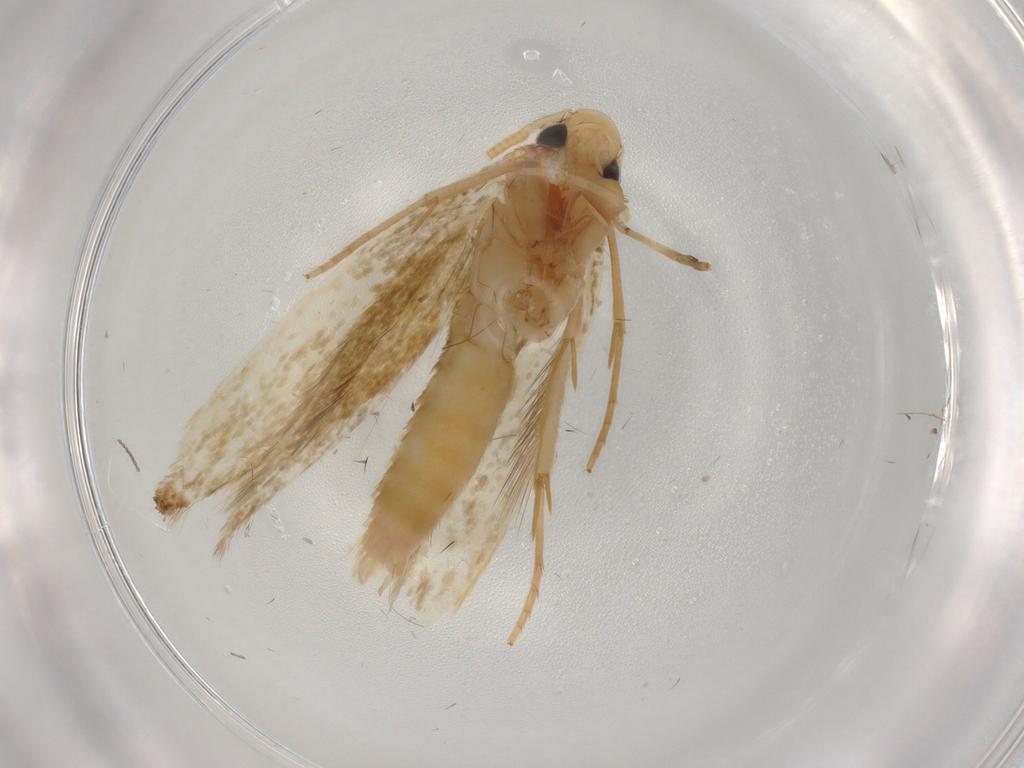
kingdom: Animalia
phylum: Arthropoda
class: Insecta
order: Lepidoptera
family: Tineidae
